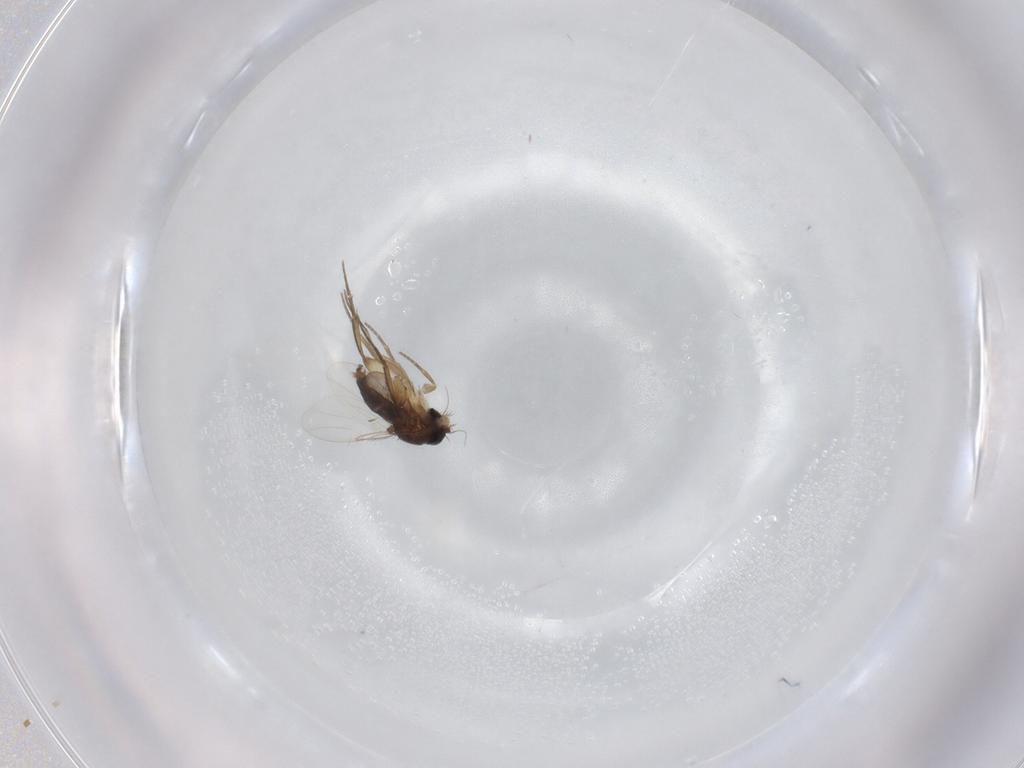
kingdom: Animalia
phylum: Arthropoda
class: Insecta
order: Diptera
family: Phoridae
